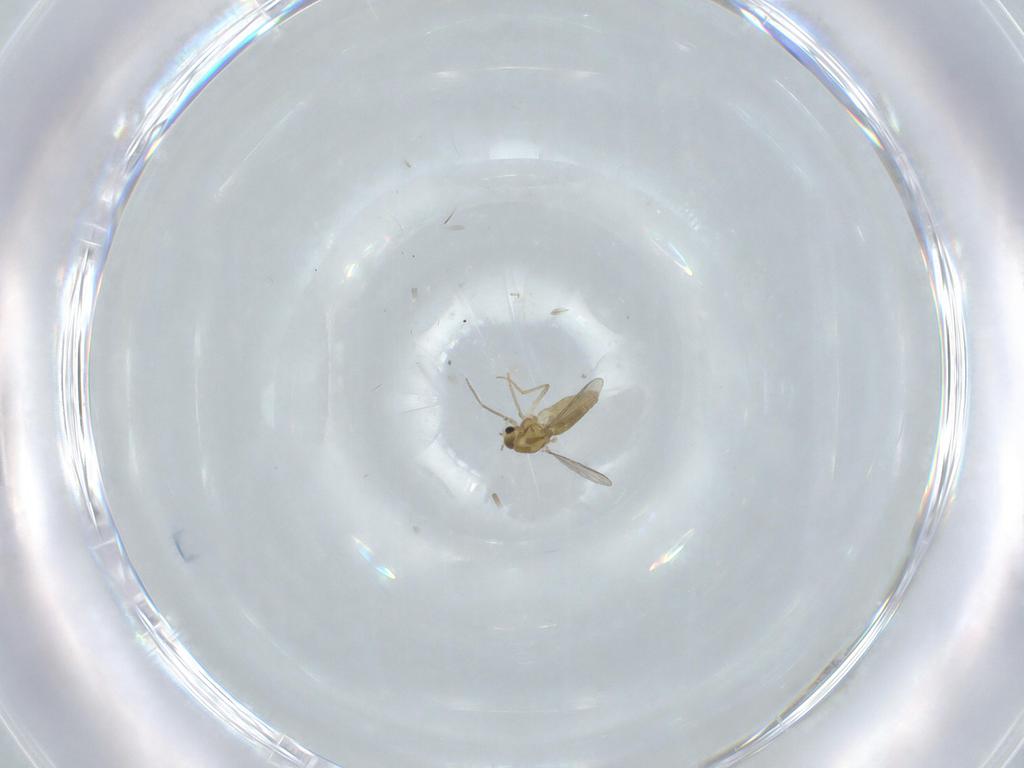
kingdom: Animalia
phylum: Arthropoda
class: Insecta
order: Diptera
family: Chironomidae
